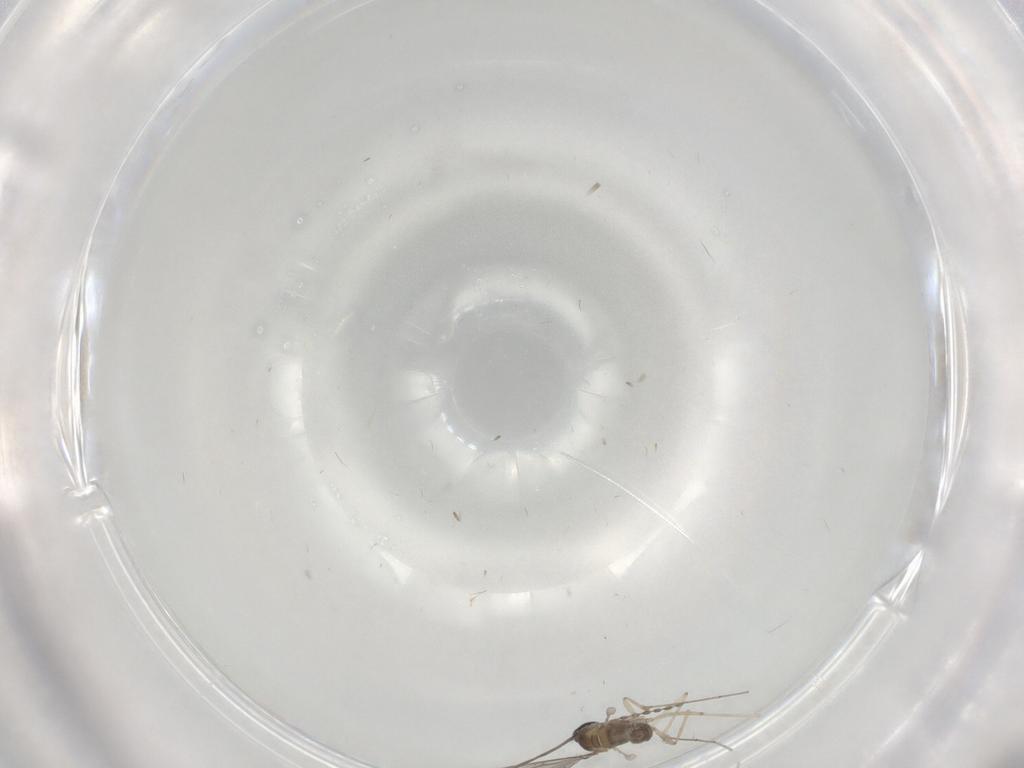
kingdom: Animalia
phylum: Arthropoda
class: Insecta
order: Diptera
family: Cecidomyiidae
